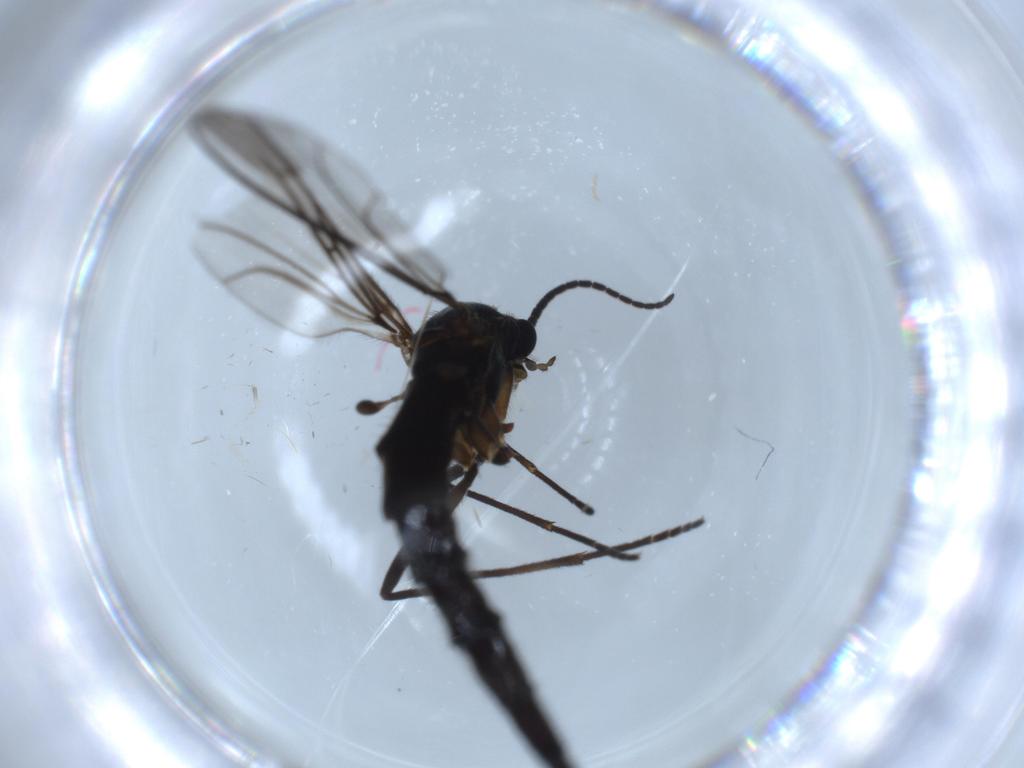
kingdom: Animalia
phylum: Arthropoda
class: Insecta
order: Diptera
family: Sciaridae
